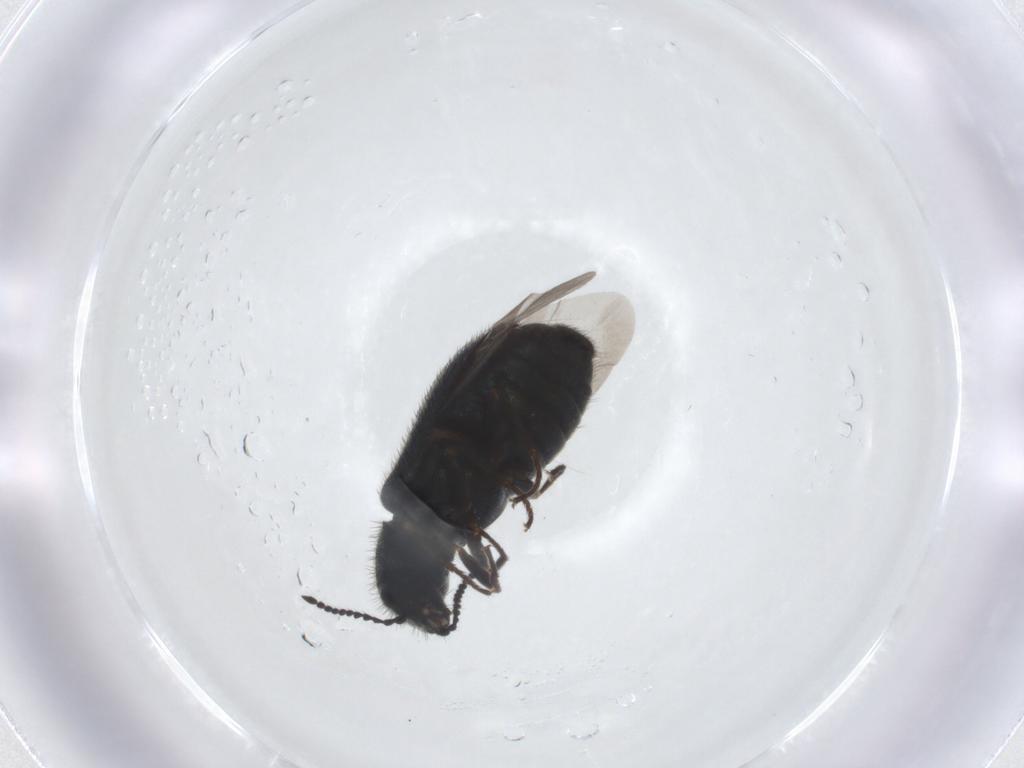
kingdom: Animalia
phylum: Arthropoda
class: Insecta
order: Coleoptera
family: Melyridae
